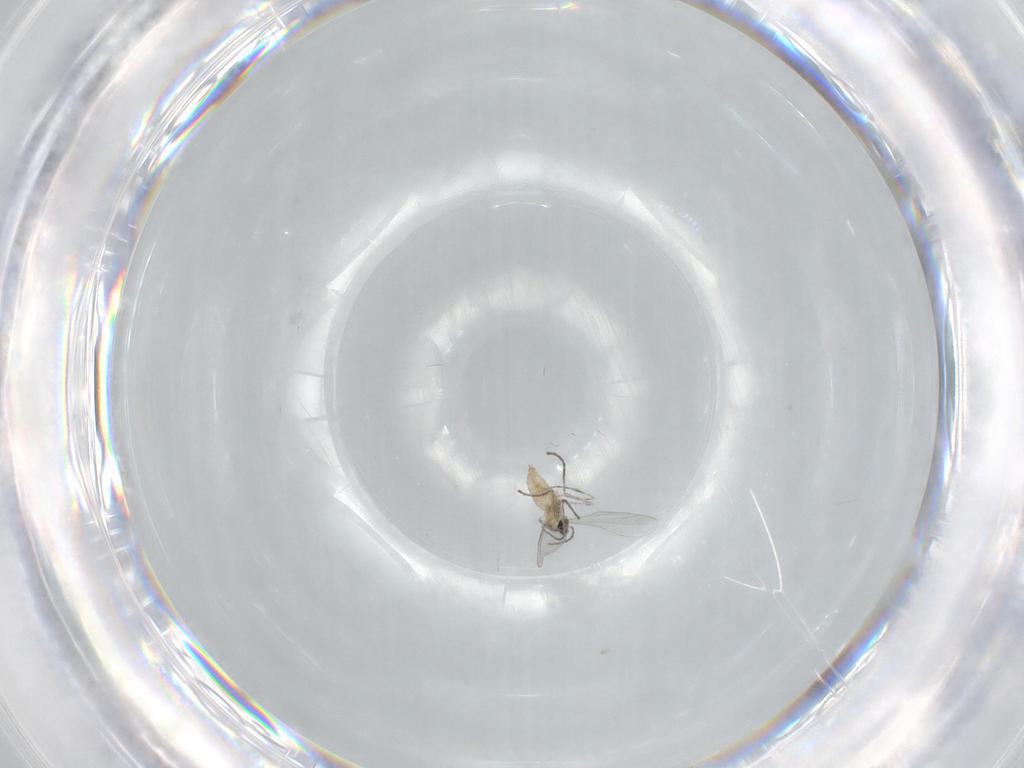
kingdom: Animalia
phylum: Arthropoda
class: Insecta
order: Diptera
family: Cecidomyiidae
